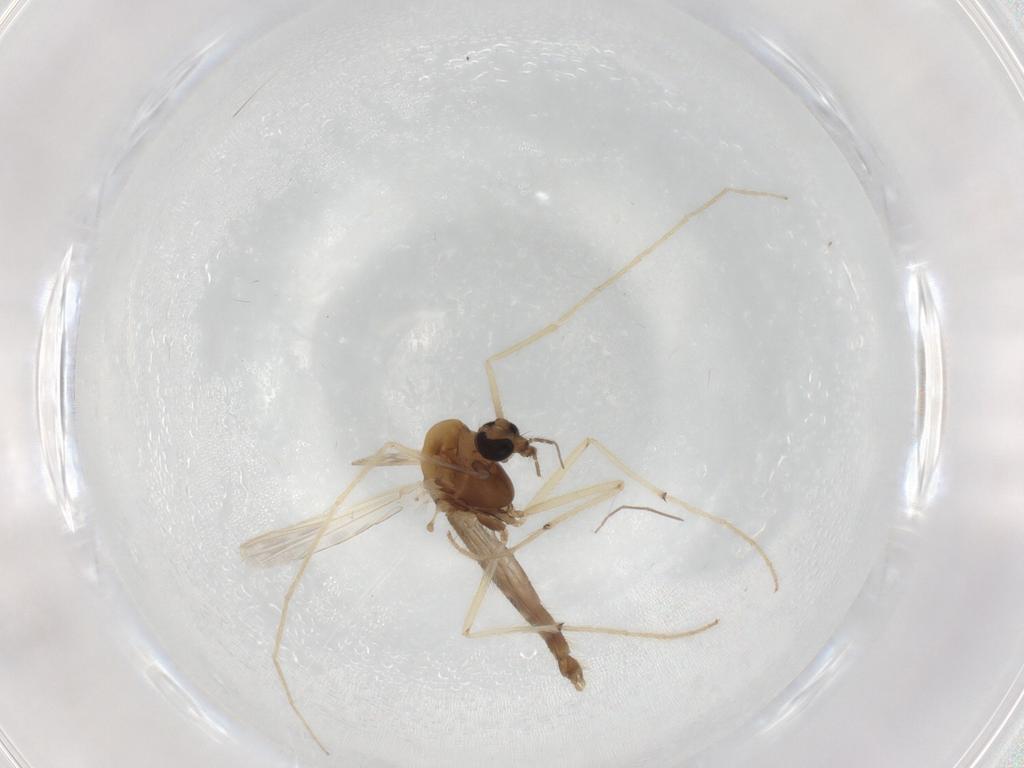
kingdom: Animalia
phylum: Arthropoda
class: Insecta
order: Diptera
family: Chironomidae
